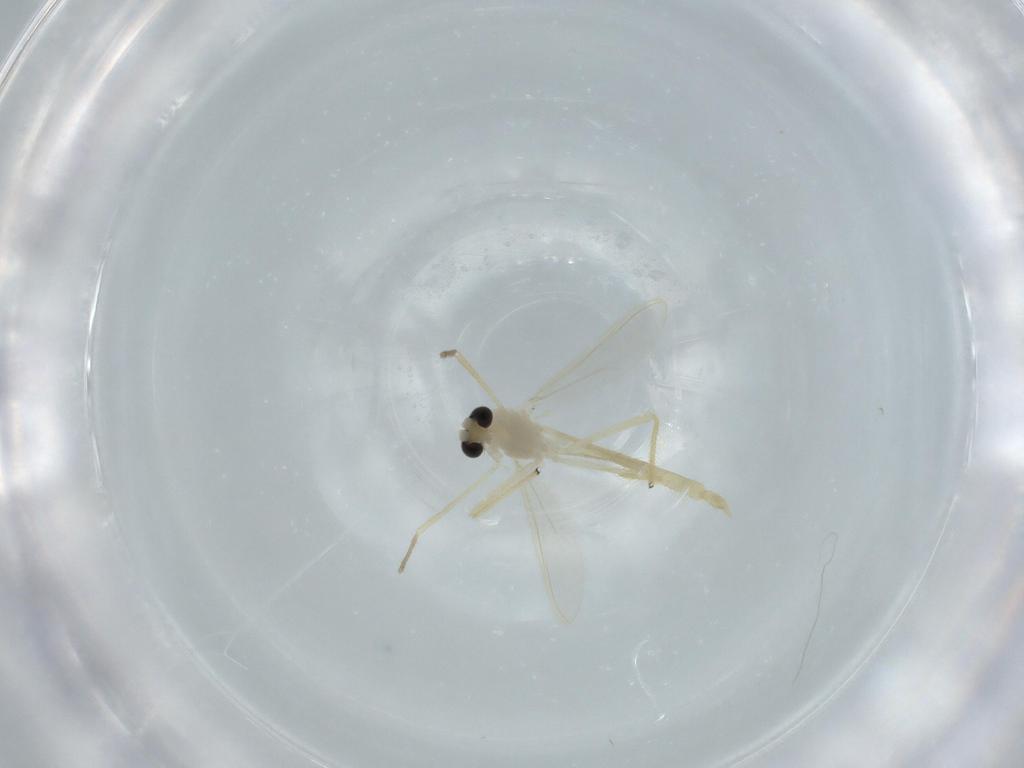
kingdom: Animalia
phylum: Arthropoda
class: Insecta
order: Diptera
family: Chironomidae
